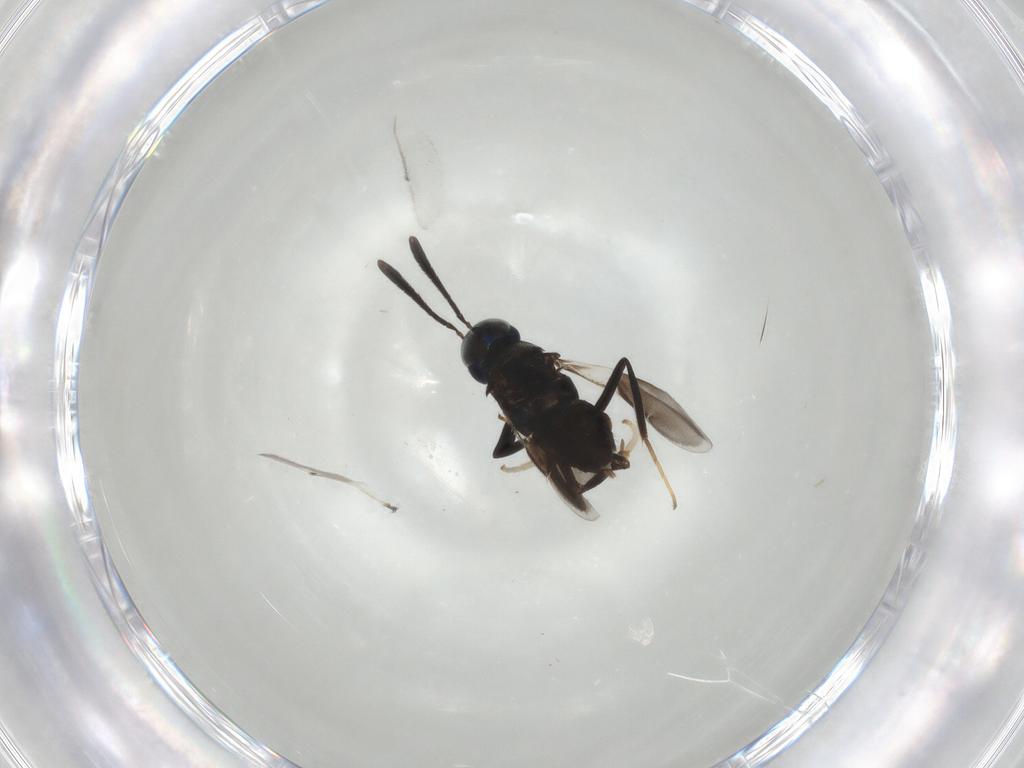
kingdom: Animalia
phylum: Arthropoda
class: Insecta
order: Hymenoptera
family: Encyrtidae
